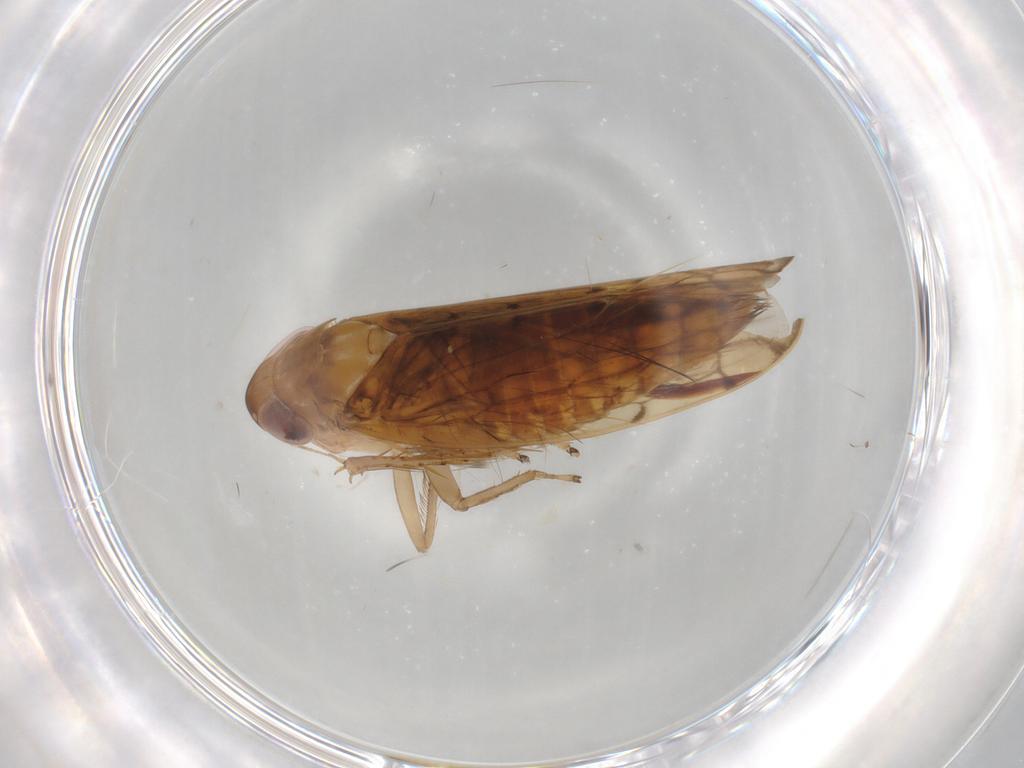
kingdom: Animalia
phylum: Arthropoda
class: Insecta
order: Hemiptera
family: Cicadellidae
